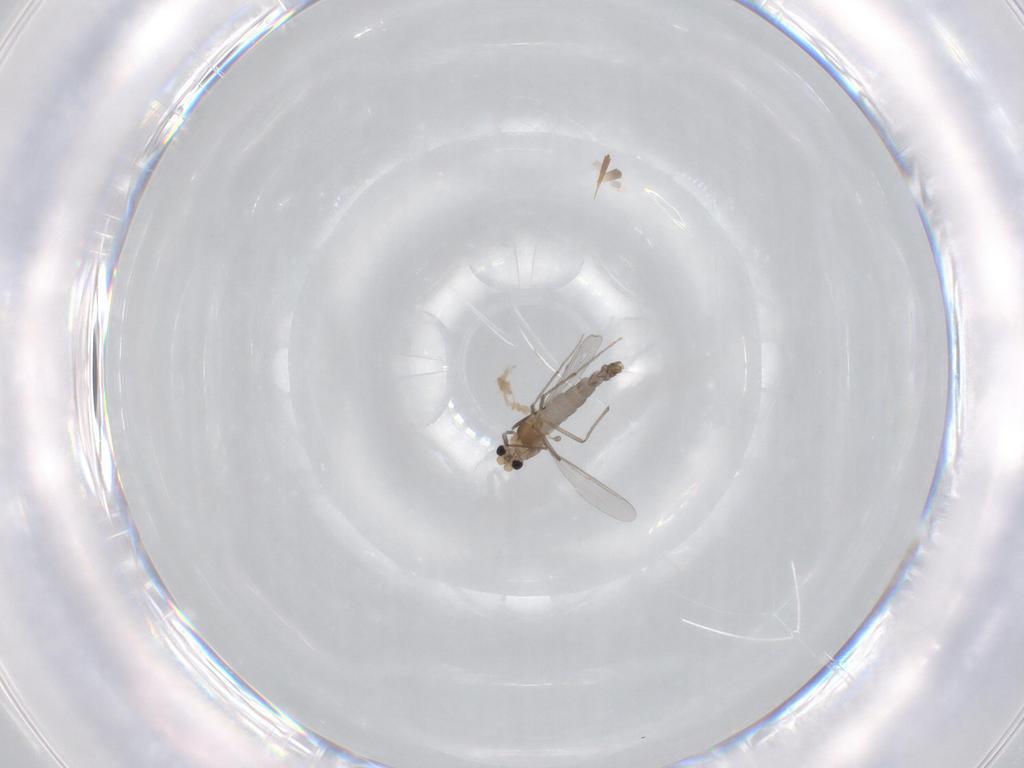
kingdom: Animalia
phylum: Arthropoda
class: Insecta
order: Diptera
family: Chironomidae
